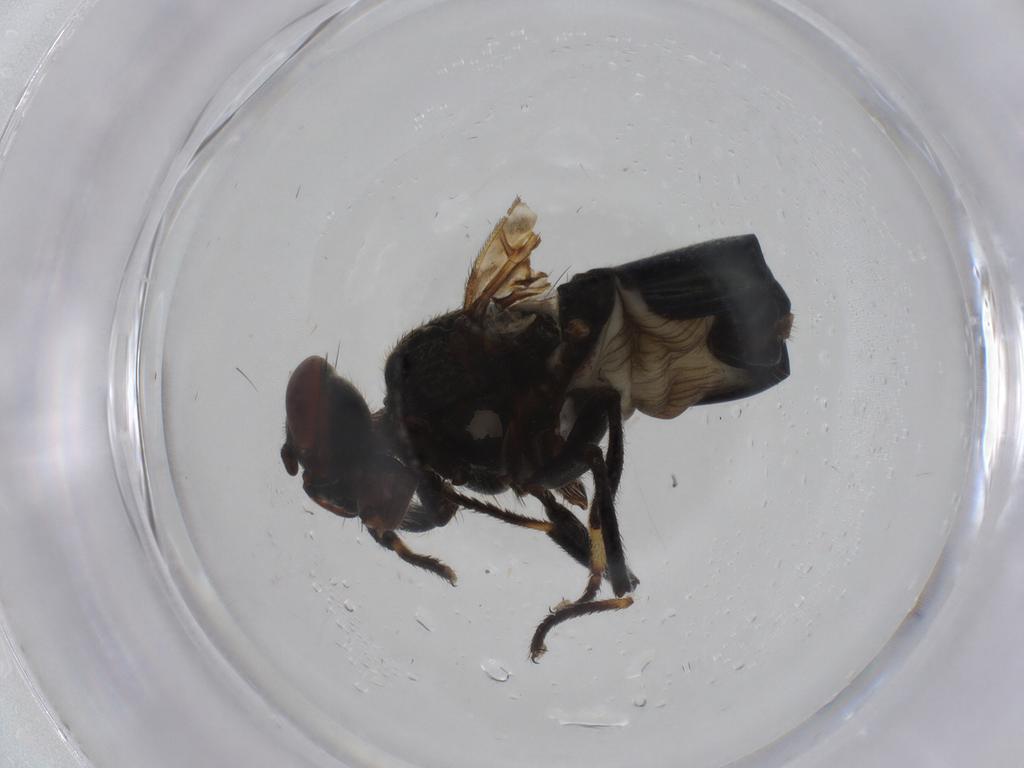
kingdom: Animalia
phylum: Arthropoda
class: Insecta
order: Diptera
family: Platystomatidae
